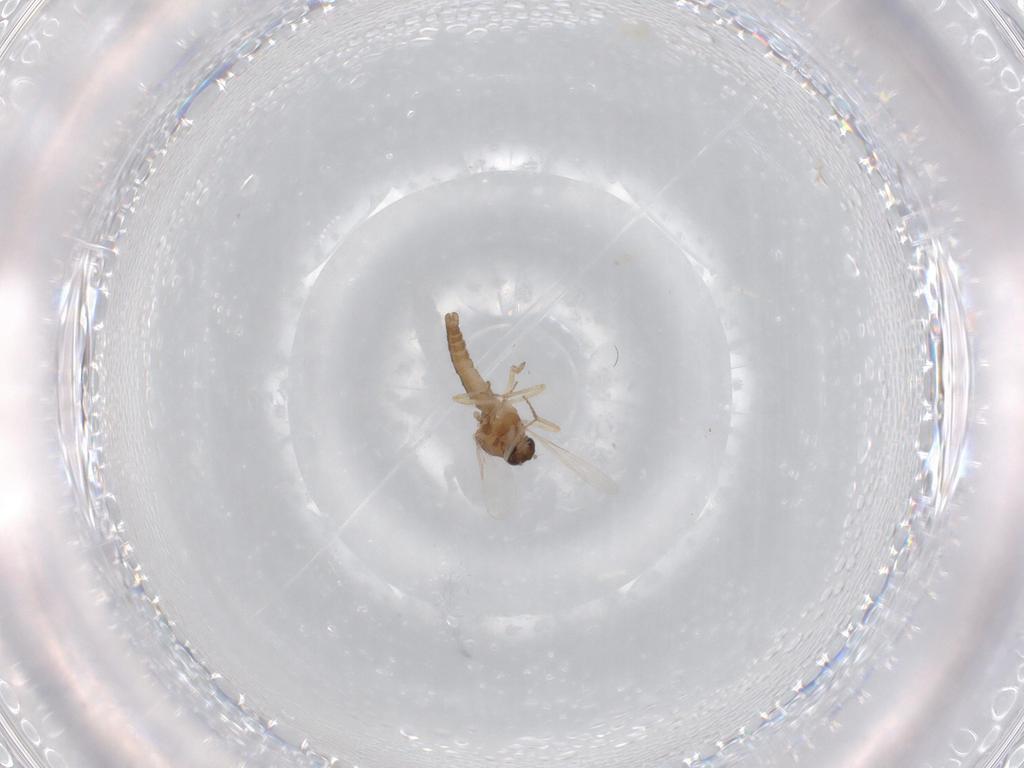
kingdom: Animalia
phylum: Arthropoda
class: Insecta
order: Diptera
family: Ceratopogonidae
